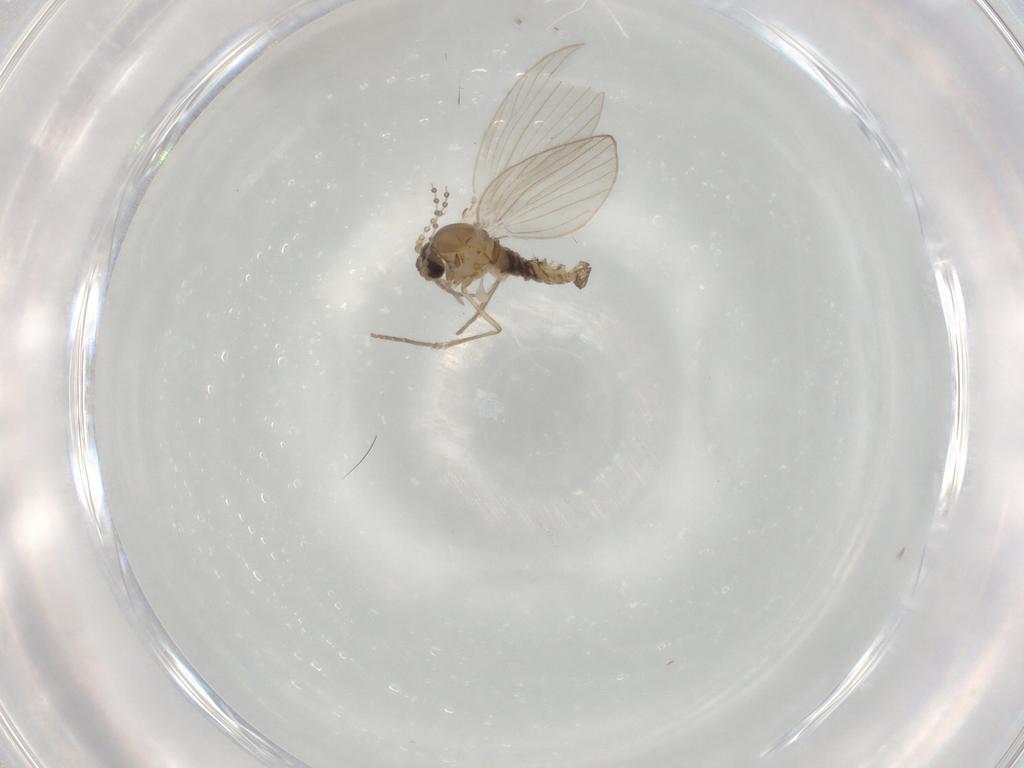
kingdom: Animalia
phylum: Arthropoda
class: Insecta
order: Diptera
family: Psychodidae
